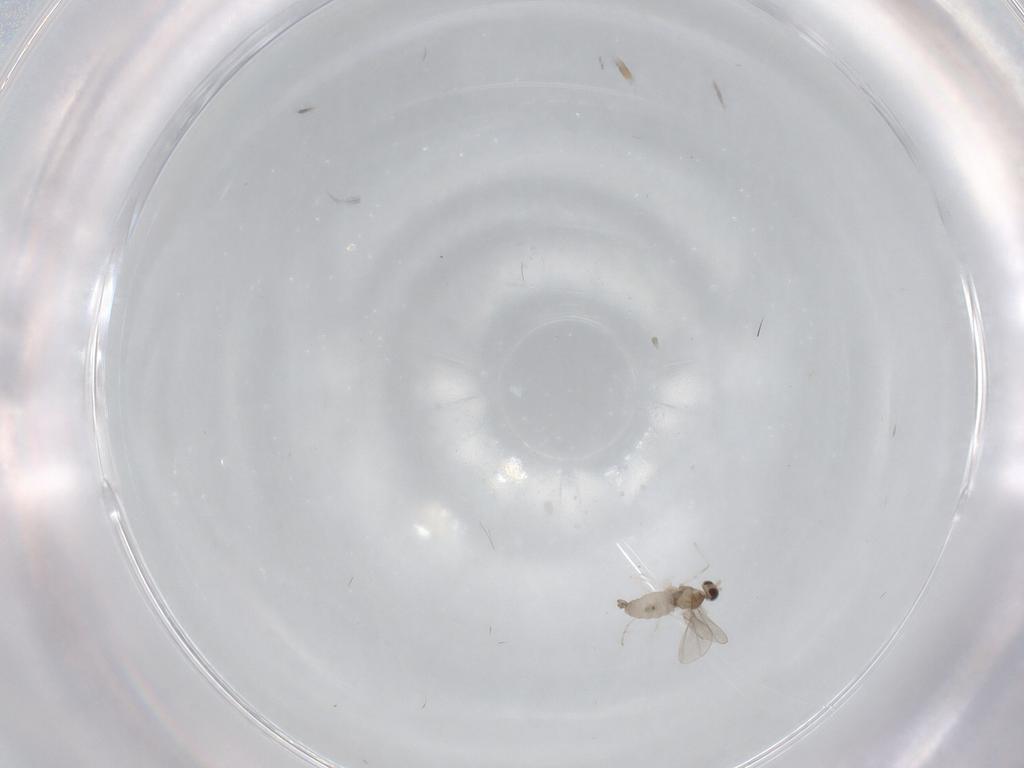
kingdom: Animalia
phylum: Arthropoda
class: Insecta
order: Diptera
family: Cecidomyiidae
